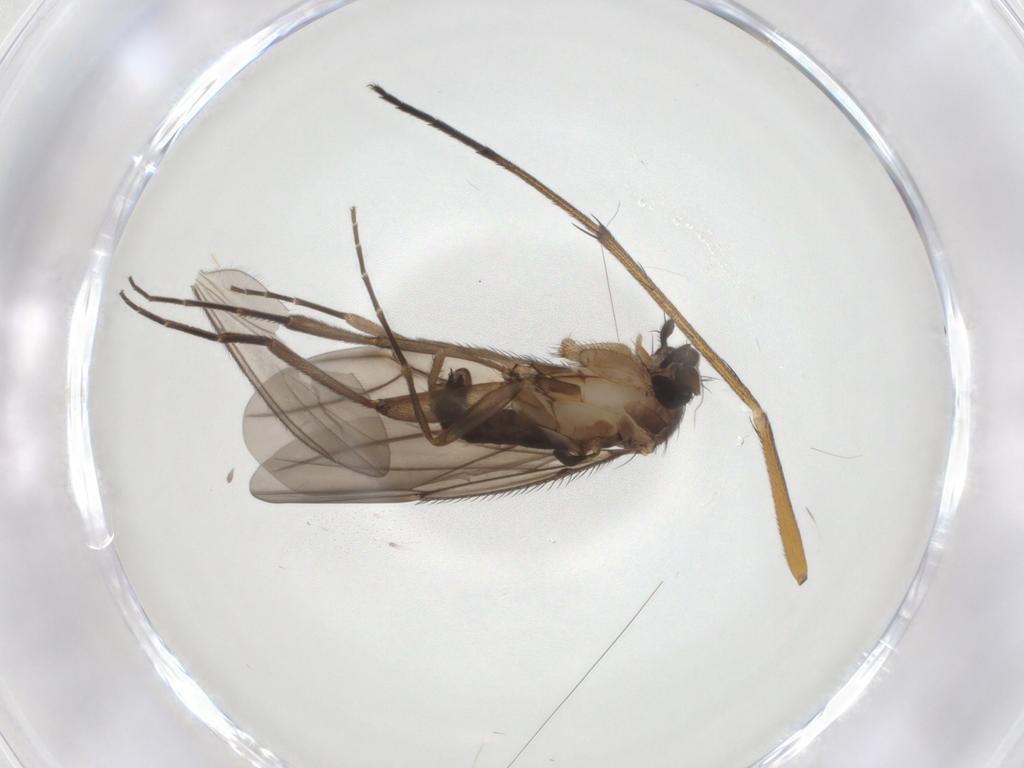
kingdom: Animalia
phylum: Arthropoda
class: Insecta
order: Diptera
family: Phoridae
